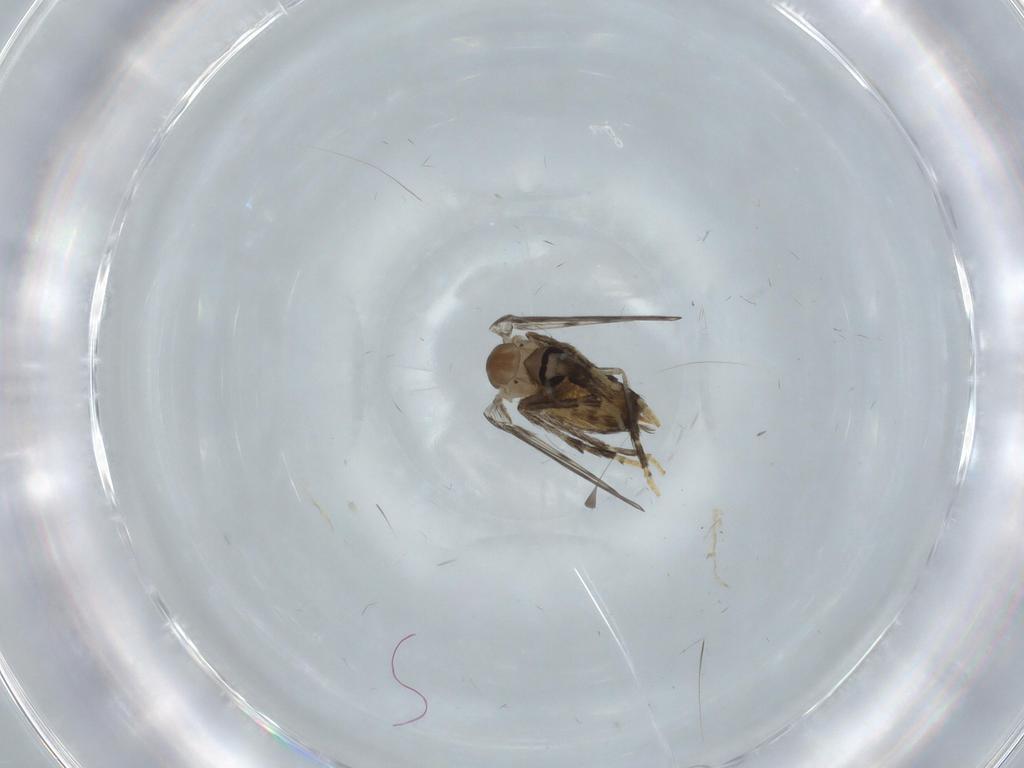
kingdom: Animalia
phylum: Arthropoda
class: Insecta
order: Diptera
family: Psychodidae
